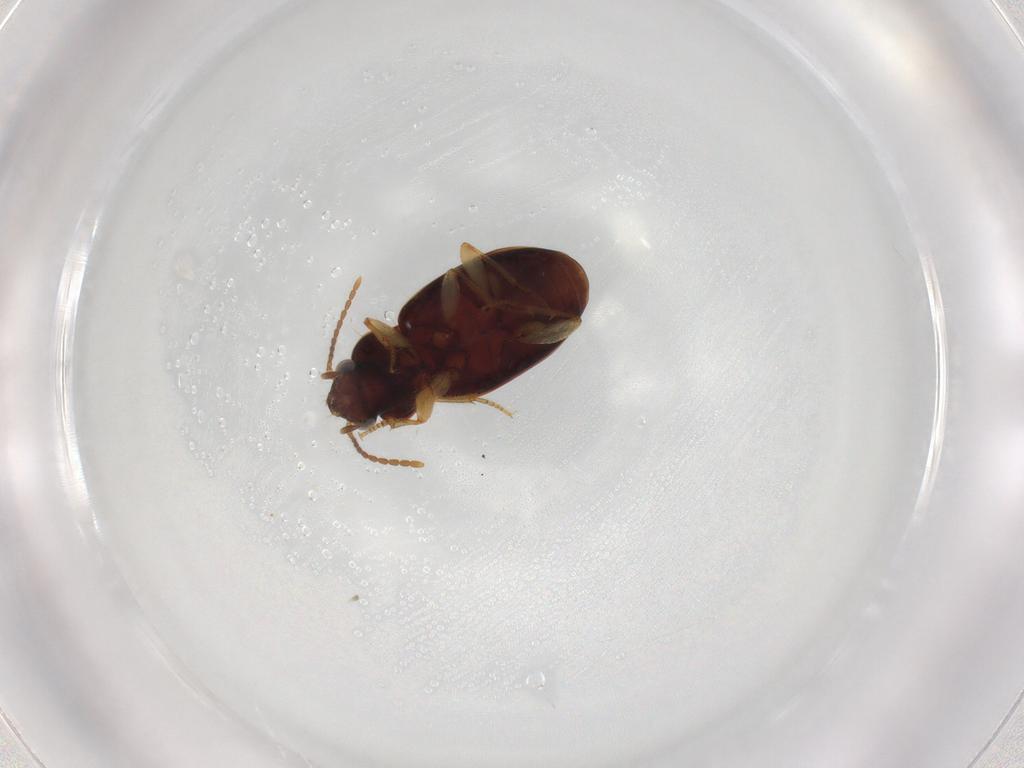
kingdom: Animalia
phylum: Arthropoda
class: Insecta
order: Coleoptera
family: Carabidae
